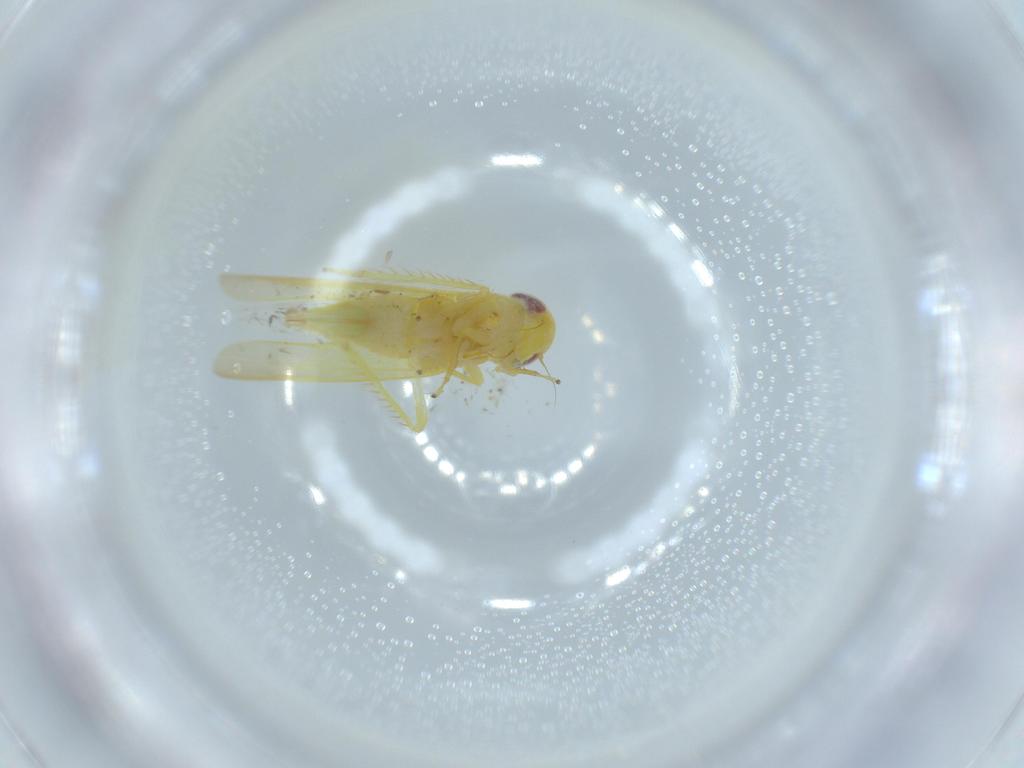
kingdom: Animalia
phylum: Arthropoda
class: Insecta
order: Hemiptera
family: Cicadellidae
